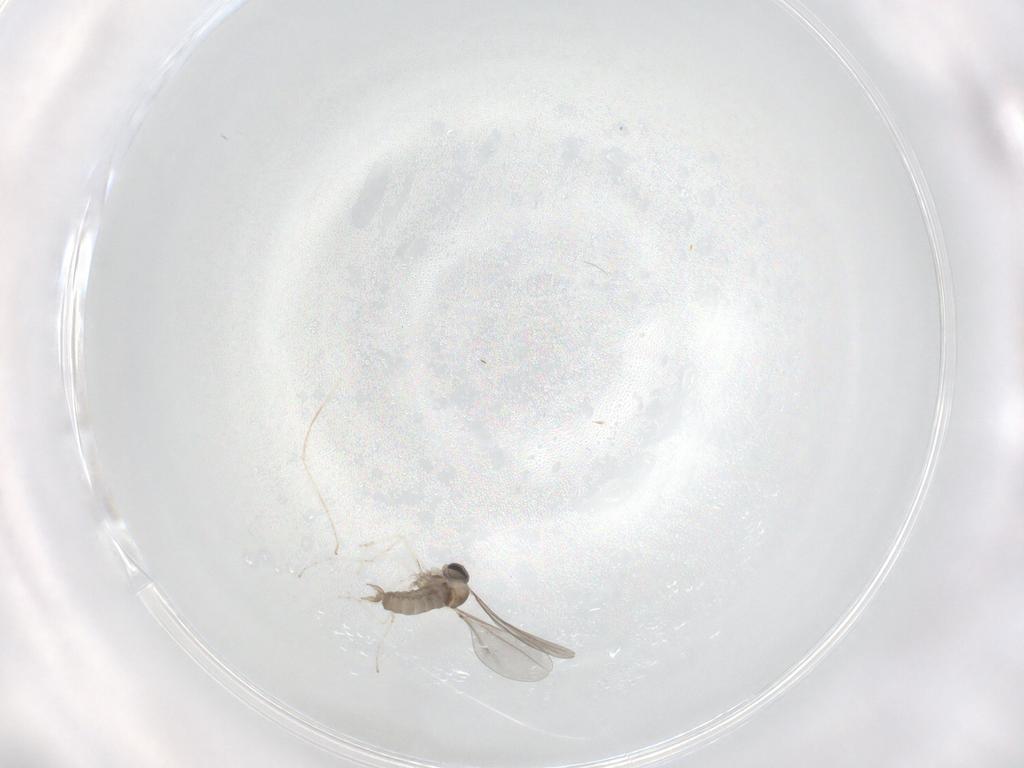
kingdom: Animalia
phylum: Arthropoda
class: Insecta
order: Diptera
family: Cecidomyiidae
